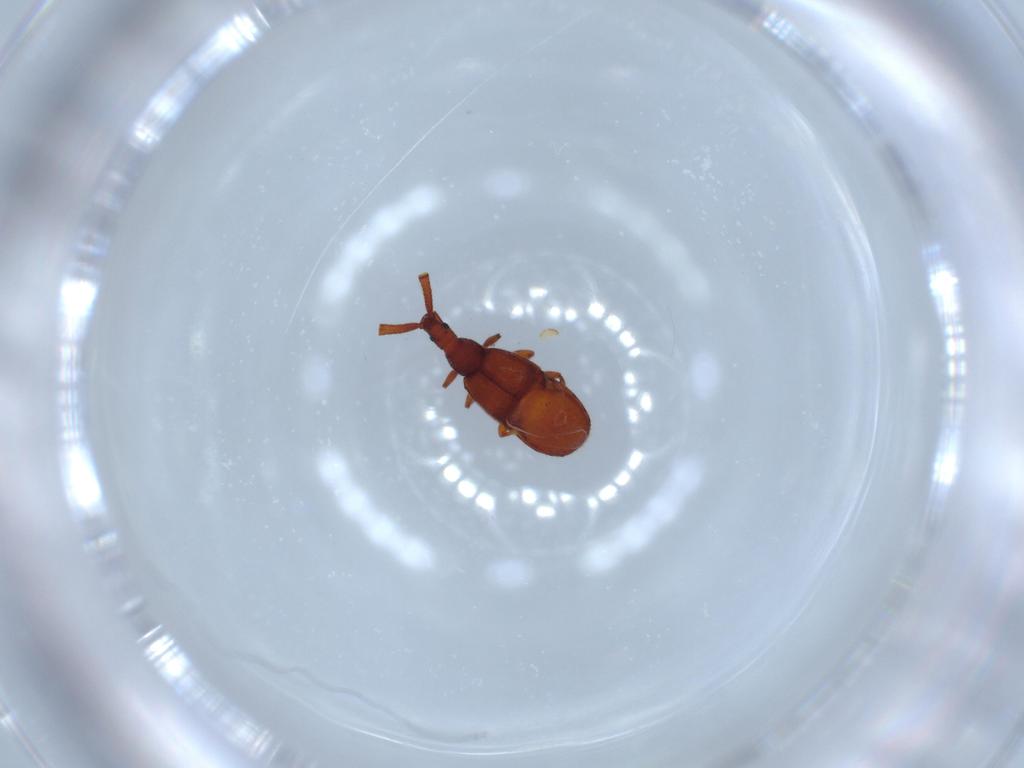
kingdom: Animalia
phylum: Arthropoda
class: Insecta
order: Coleoptera
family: Staphylinidae
